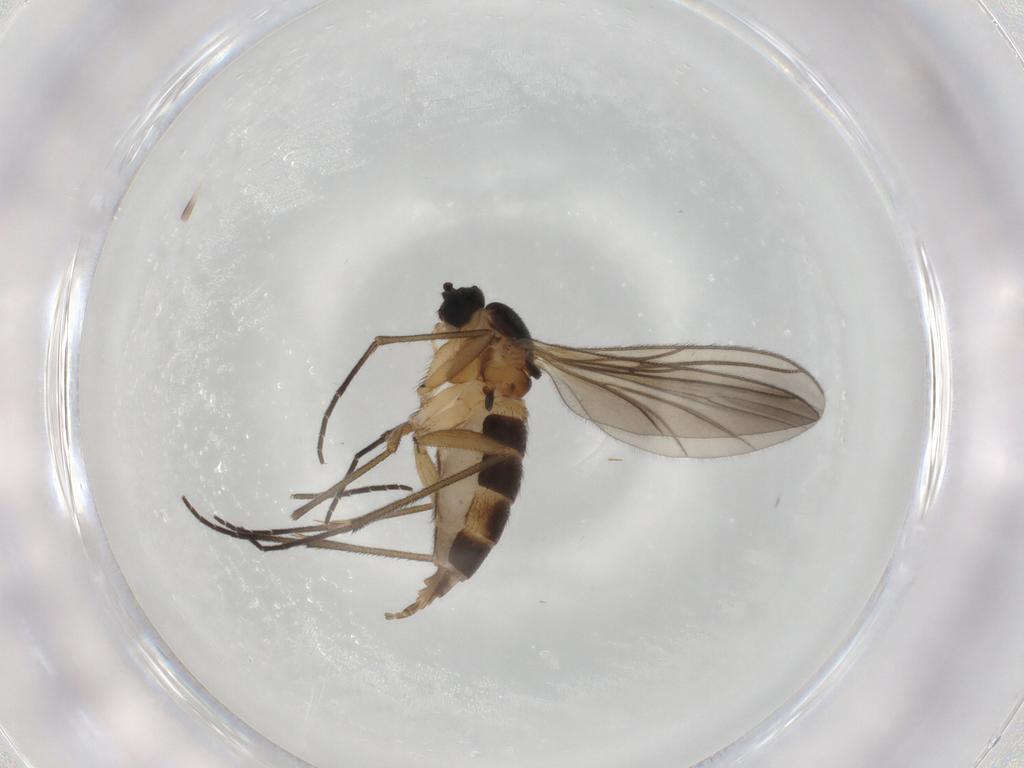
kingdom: Animalia
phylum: Arthropoda
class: Insecta
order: Diptera
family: Sciaridae
